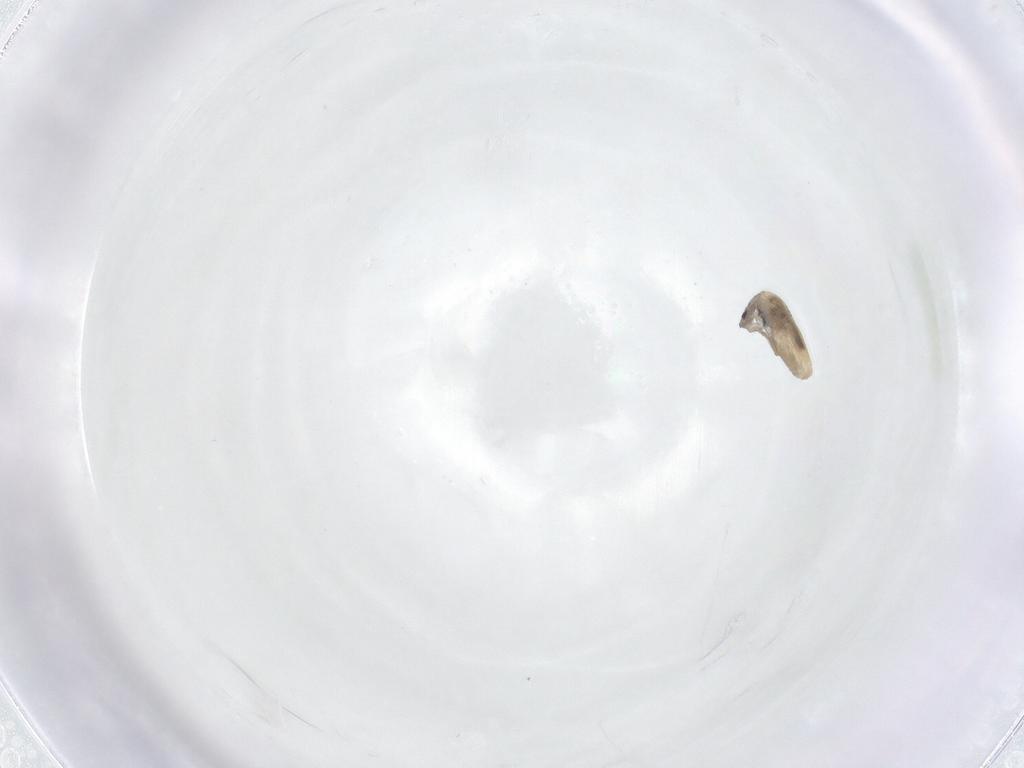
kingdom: Animalia
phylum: Arthropoda
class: Collembola
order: Entomobryomorpha
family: Entomobryidae
